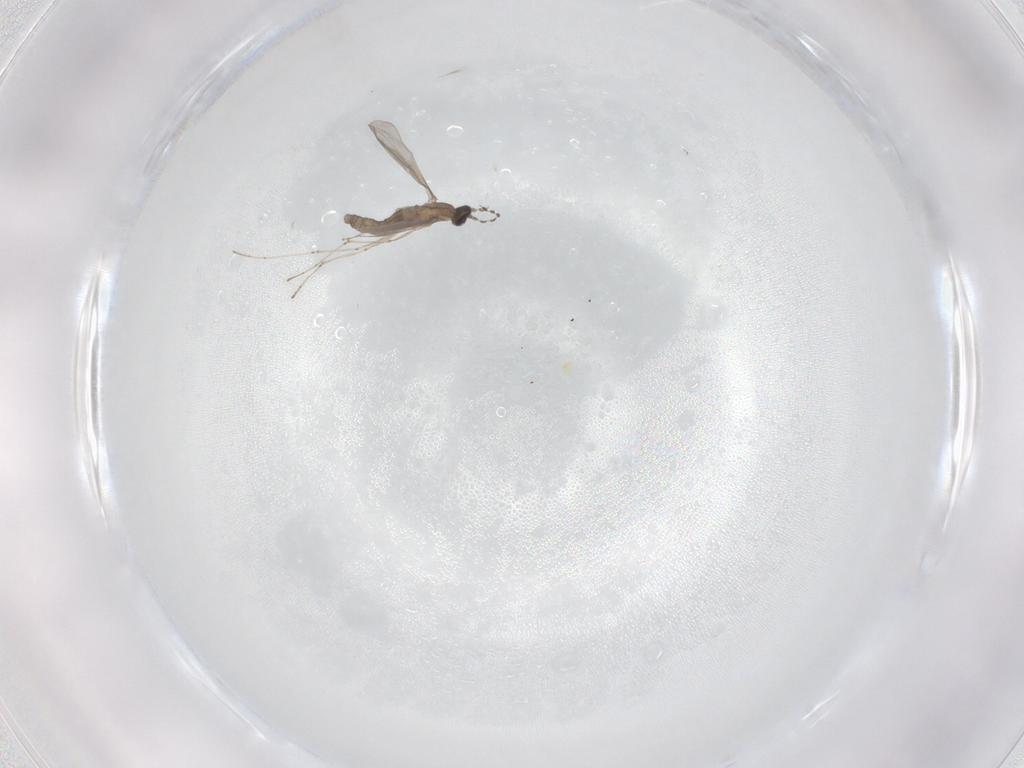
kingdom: Animalia
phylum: Arthropoda
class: Insecta
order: Diptera
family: Cecidomyiidae
